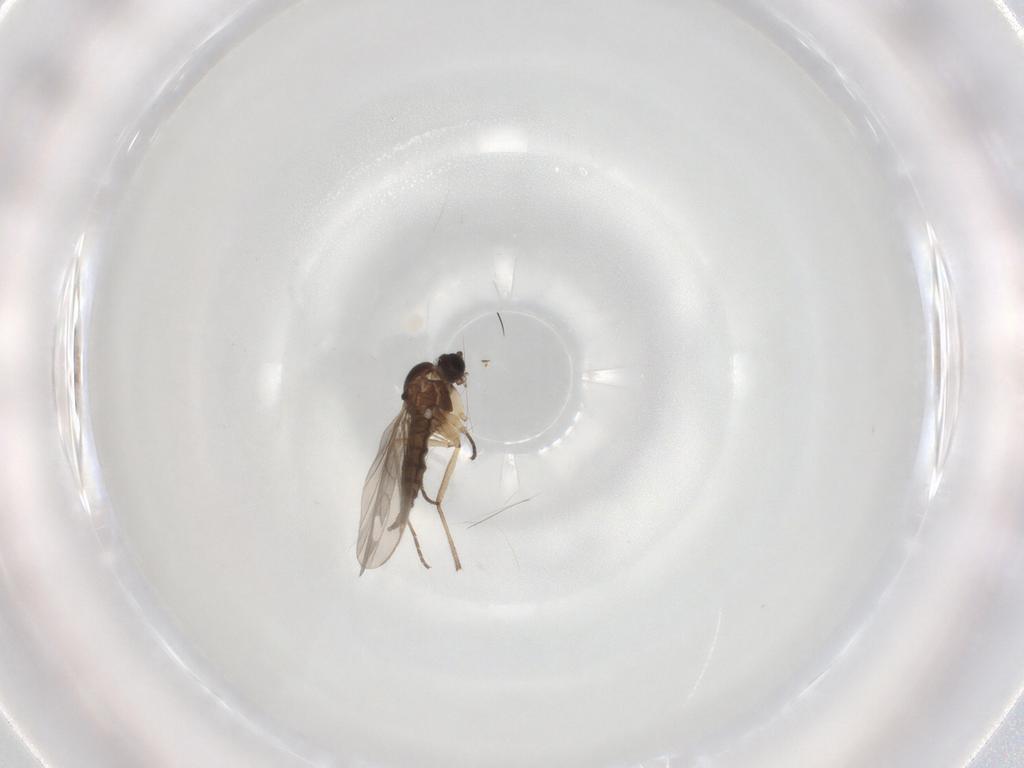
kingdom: Animalia
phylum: Arthropoda
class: Insecta
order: Diptera
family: Sciaridae
